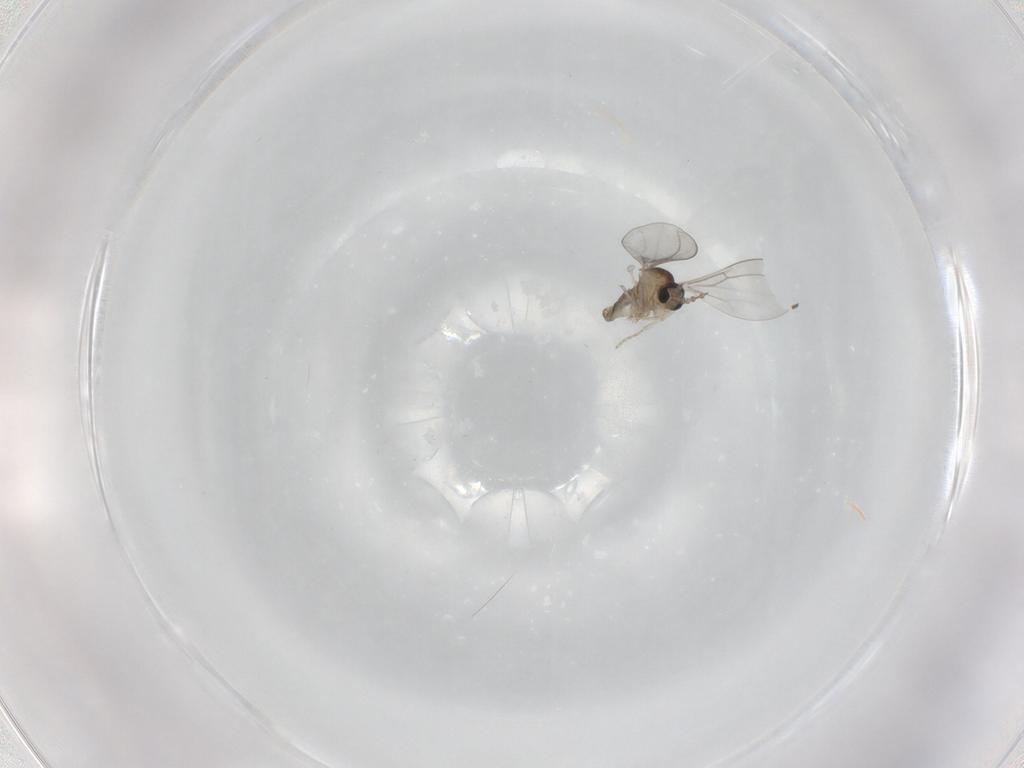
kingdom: Animalia
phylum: Arthropoda
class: Insecta
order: Diptera
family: Cecidomyiidae
